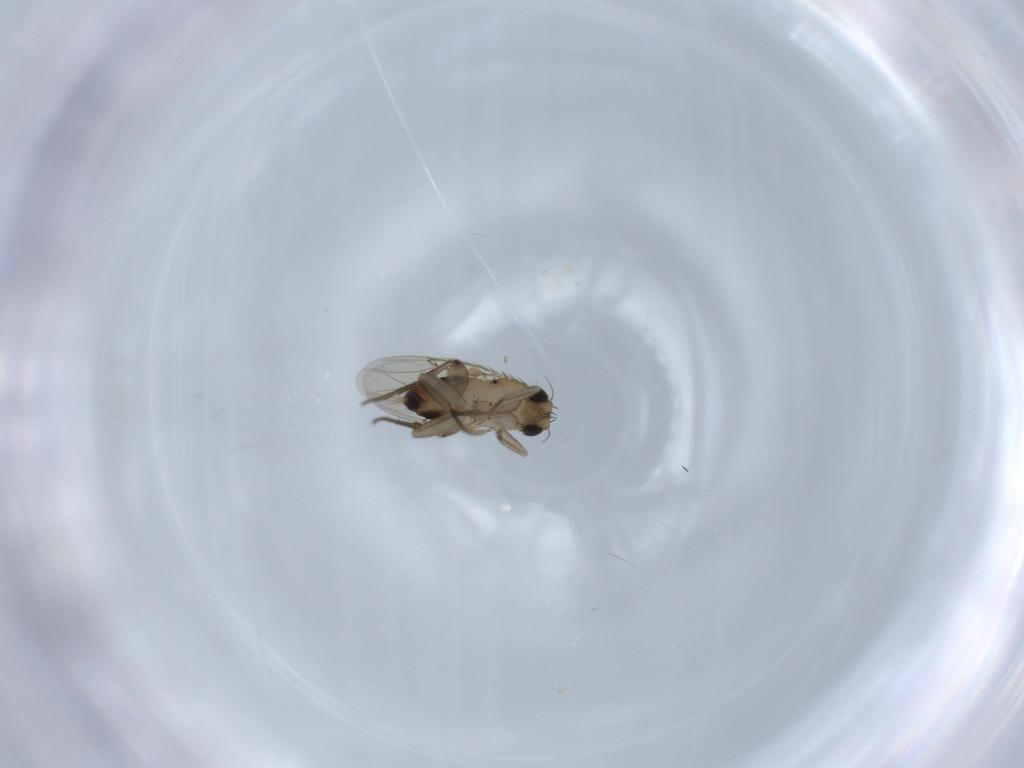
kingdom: Animalia
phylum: Arthropoda
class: Insecta
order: Diptera
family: Phoridae
